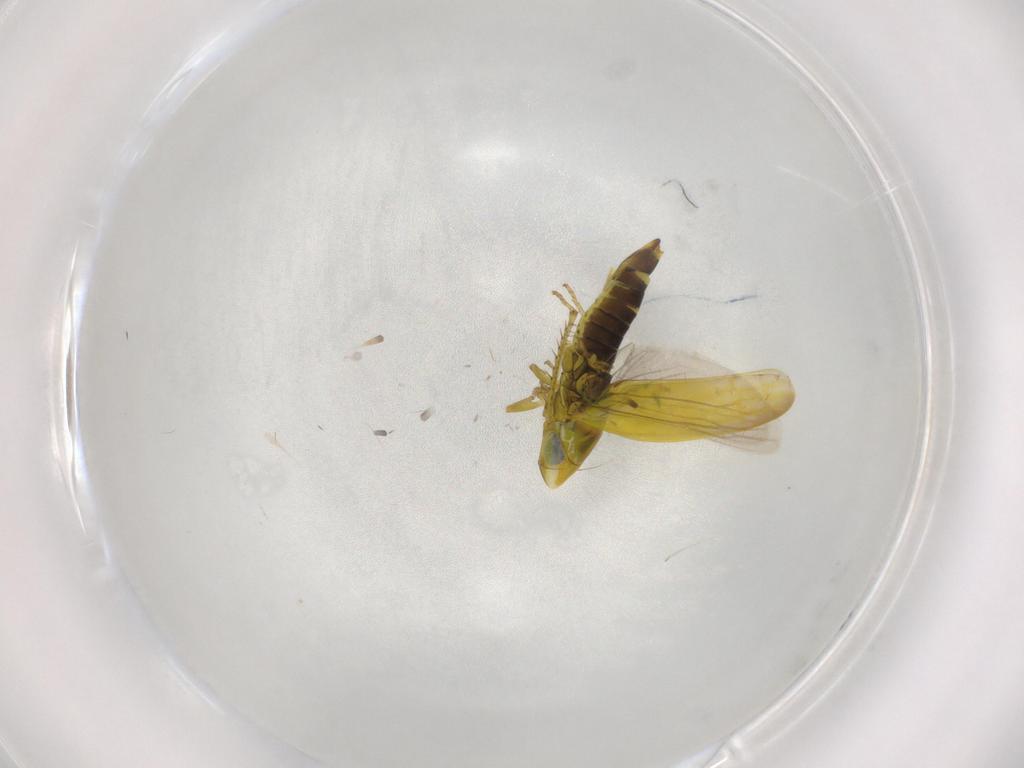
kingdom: Animalia
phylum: Arthropoda
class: Insecta
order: Hemiptera
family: Cicadellidae
